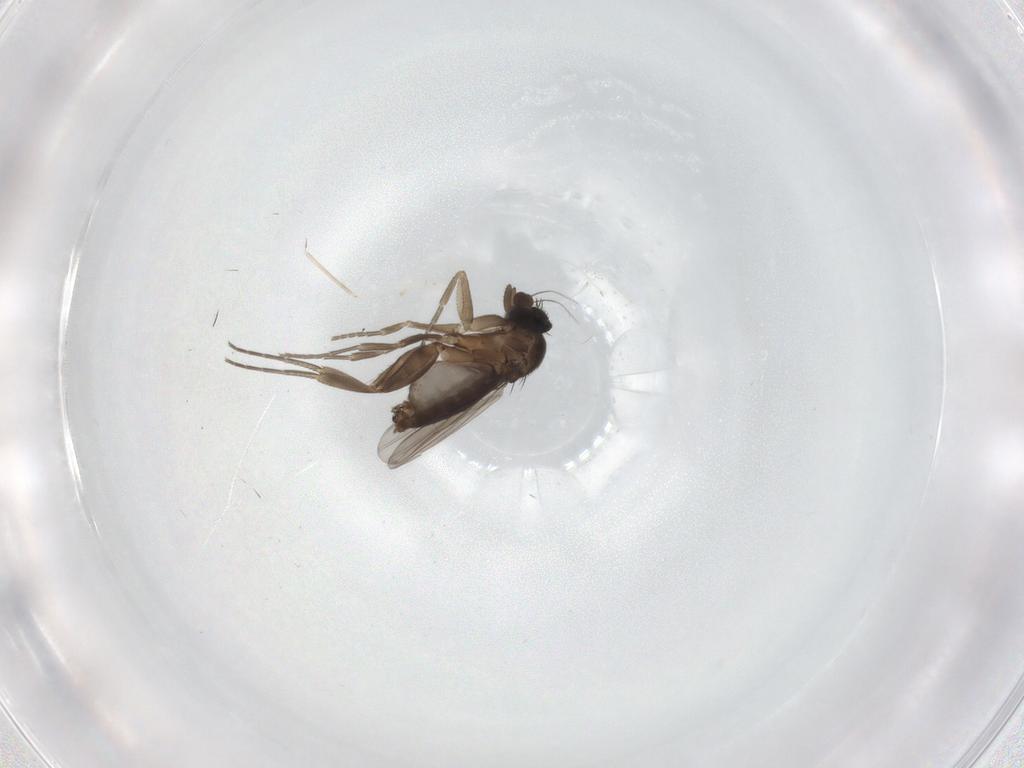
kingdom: Animalia
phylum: Arthropoda
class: Insecta
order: Diptera
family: Phoridae
